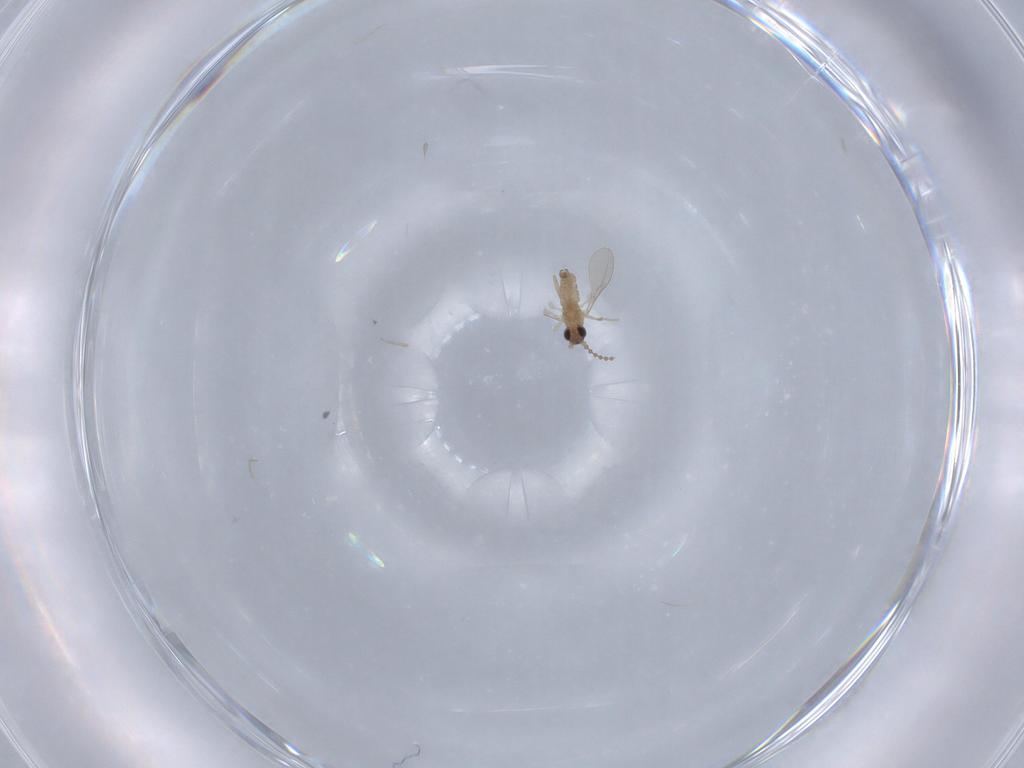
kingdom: Animalia
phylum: Arthropoda
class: Insecta
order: Diptera
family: Cecidomyiidae
